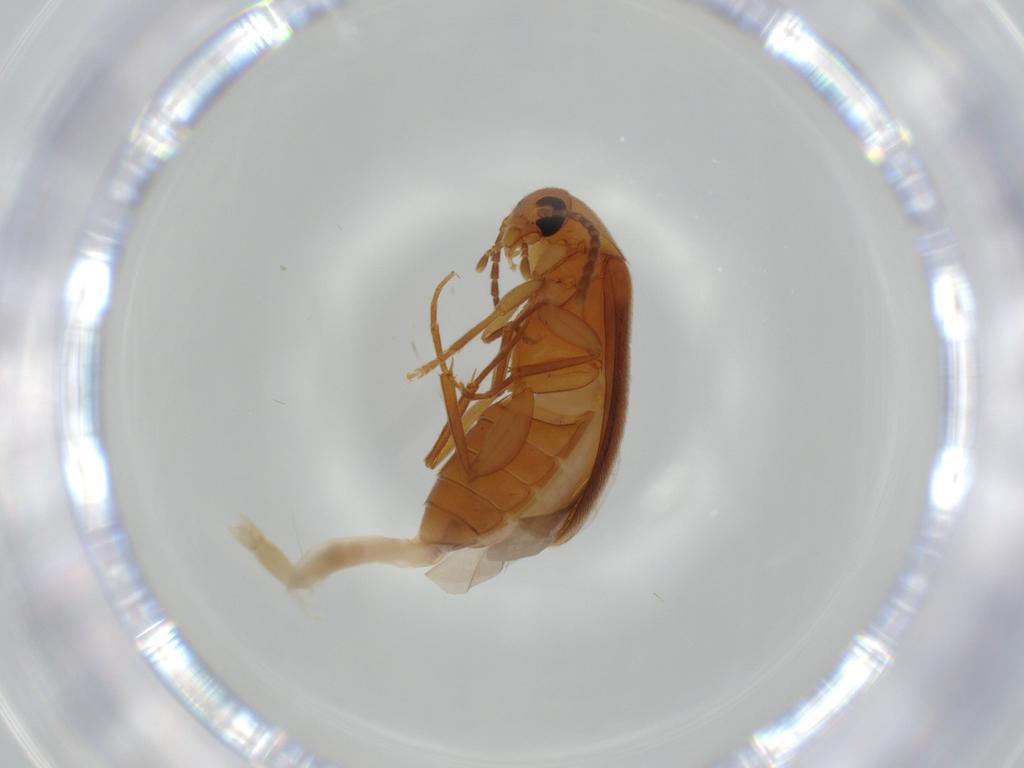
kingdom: Animalia
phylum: Arthropoda
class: Insecta
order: Coleoptera
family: Scraptiidae
